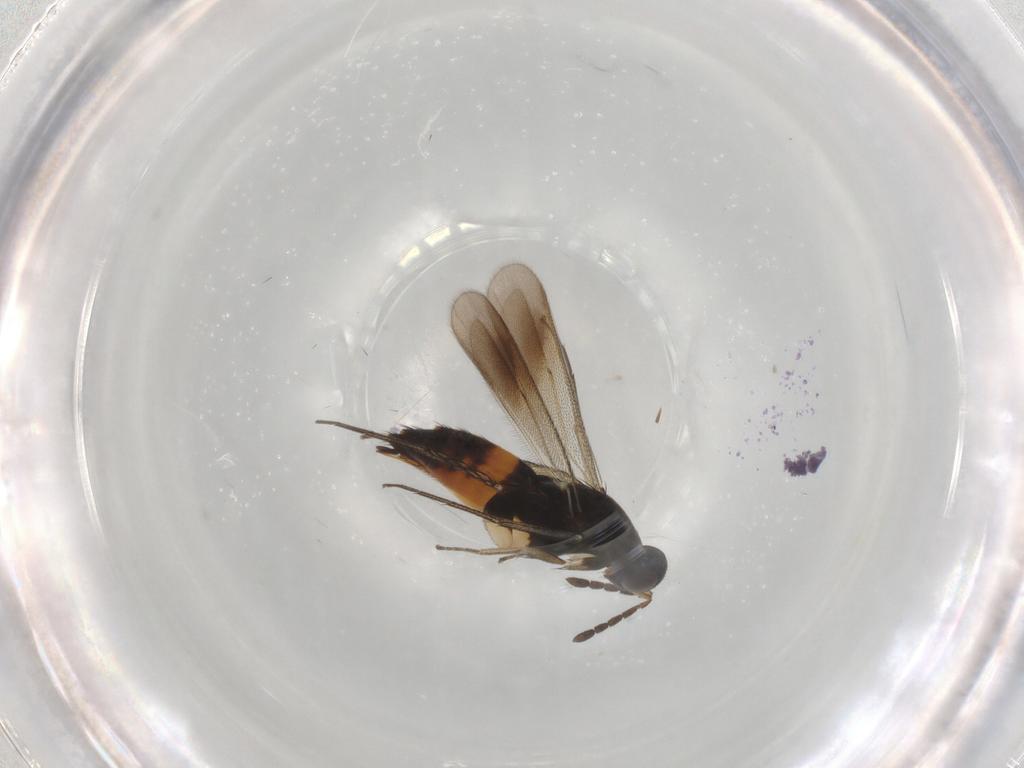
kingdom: Animalia
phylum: Arthropoda
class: Insecta
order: Hymenoptera
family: Eulophidae
